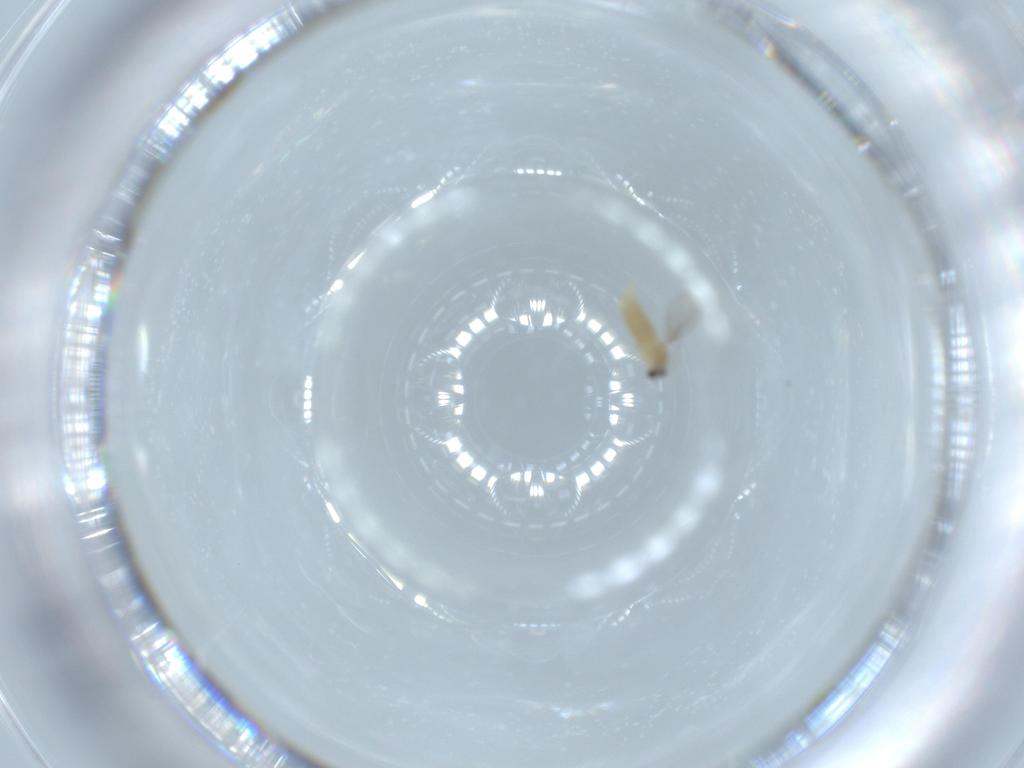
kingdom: Animalia
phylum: Arthropoda
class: Insecta
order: Diptera
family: Cecidomyiidae
